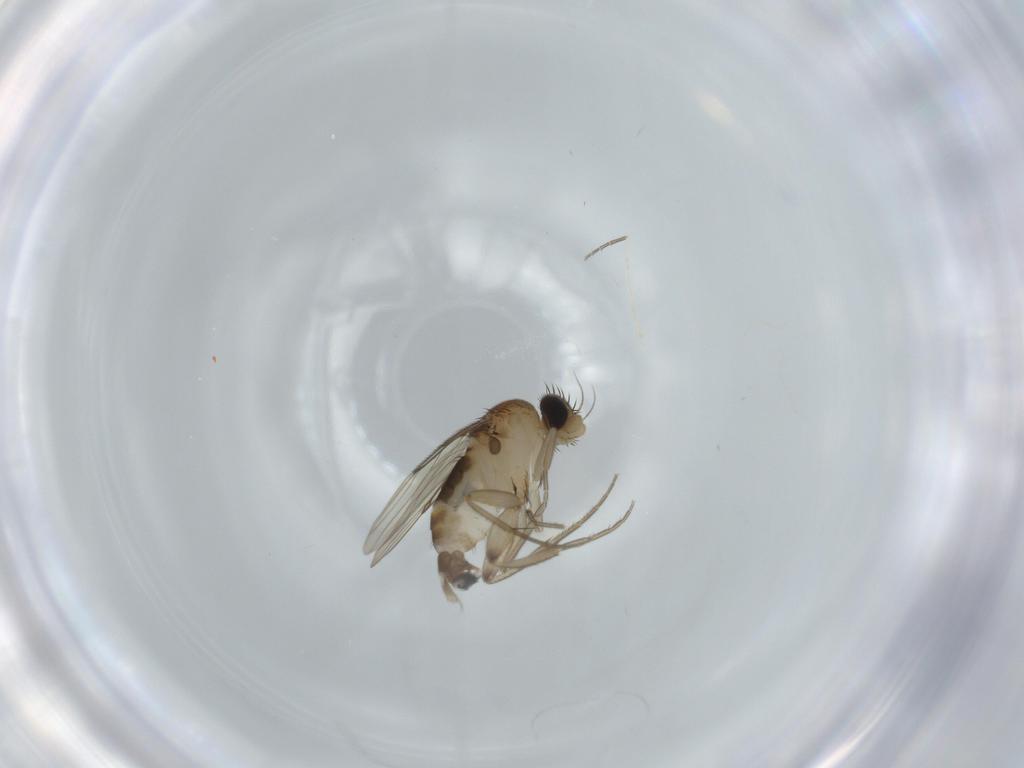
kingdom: Animalia
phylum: Arthropoda
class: Insecta
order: Diptera
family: Phoridae
